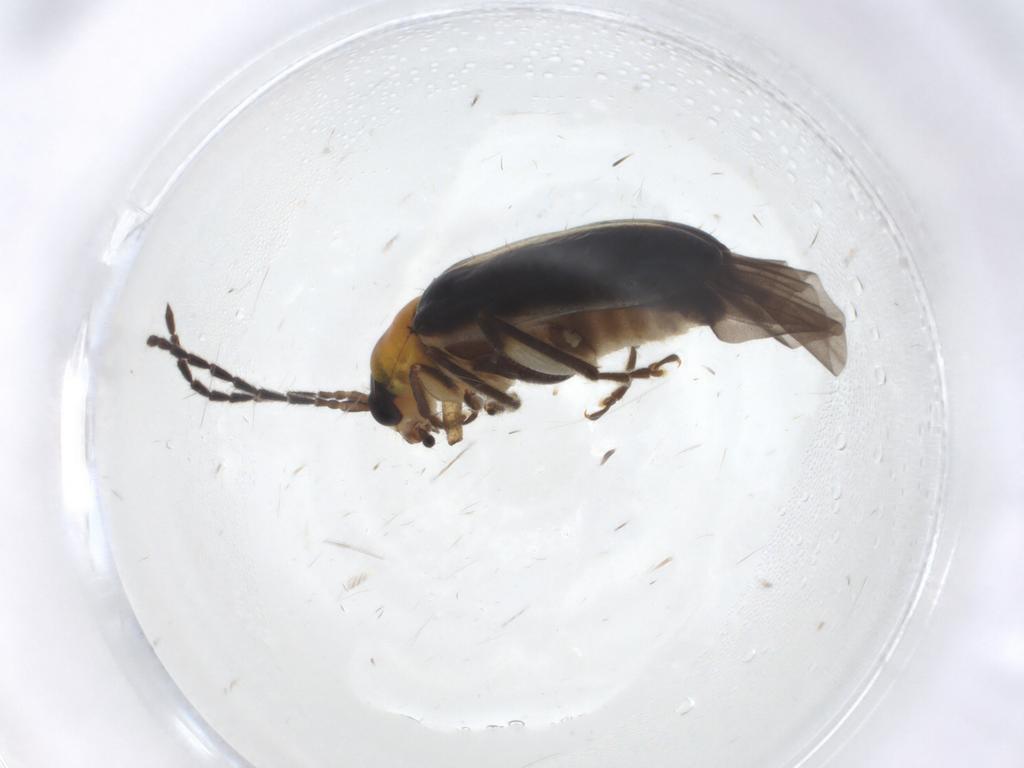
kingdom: Animalia
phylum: Arthropoda
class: Insecta
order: Coleoptera
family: Chrysomelidae
